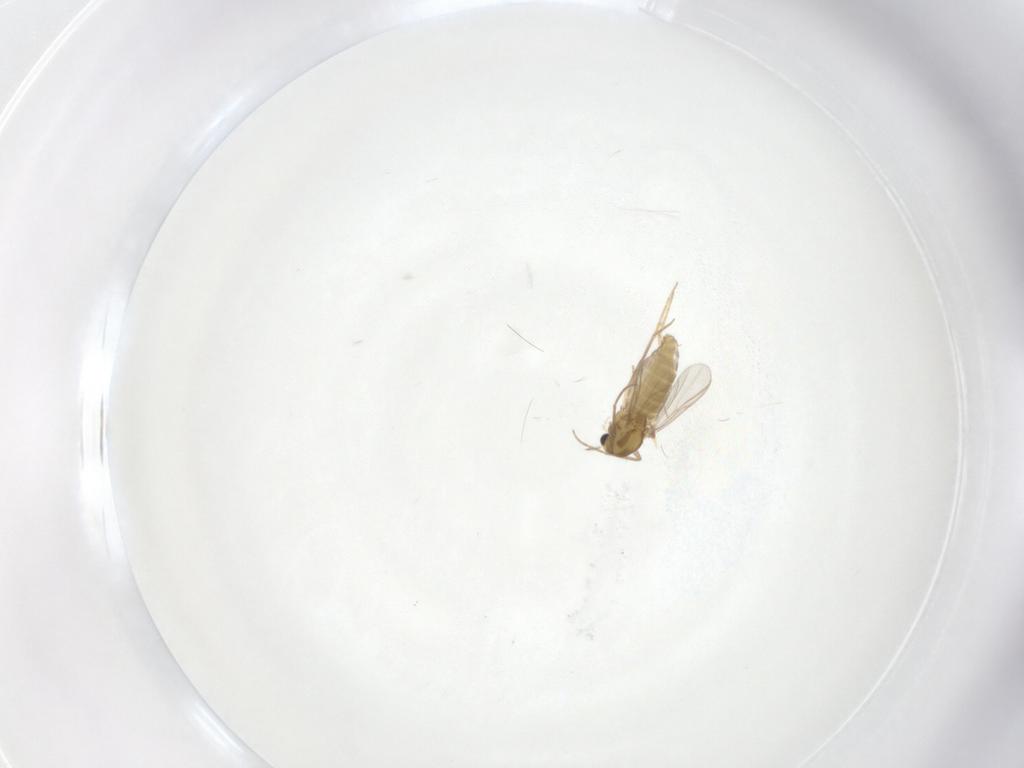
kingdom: Animalia
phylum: Arthropoda
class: Insecta
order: Diptera
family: Chironomidae
